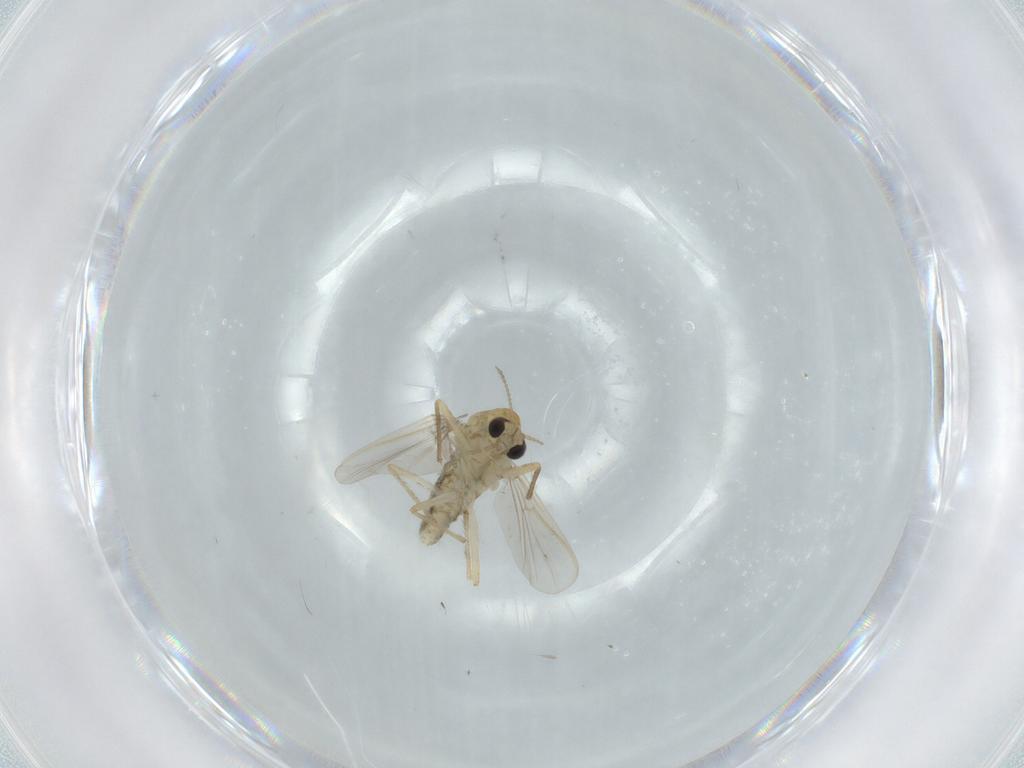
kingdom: Animalia
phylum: Arthropoda
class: Insecta
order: Diptera
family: Chironomidae
